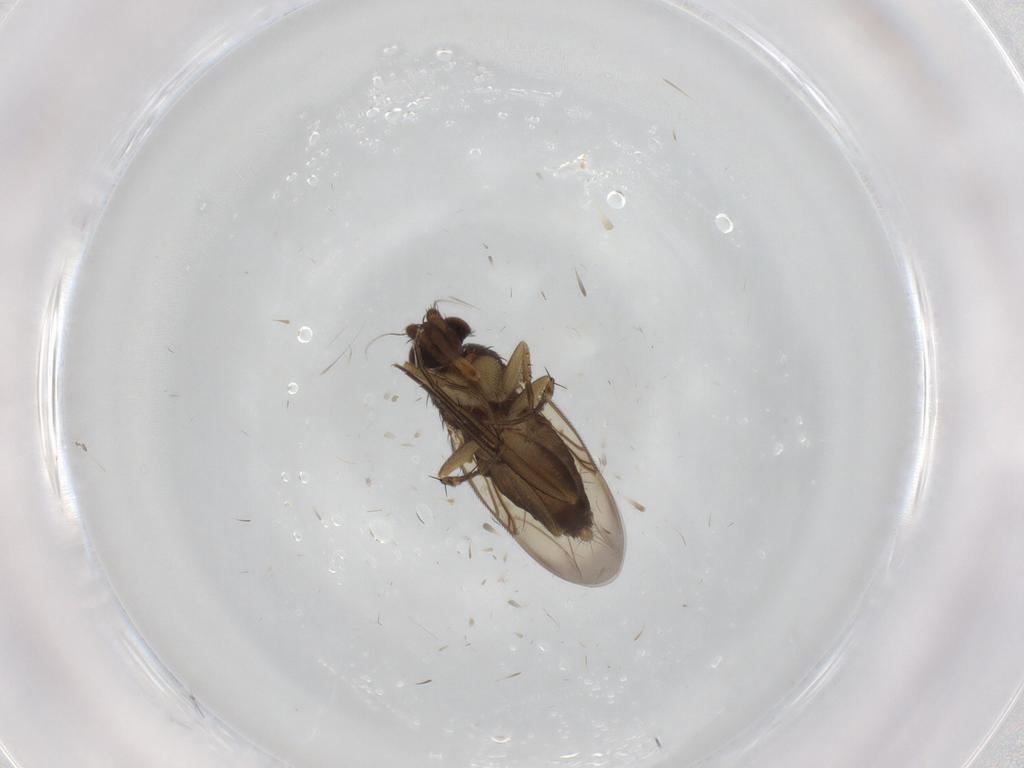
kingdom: Animalia
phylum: Arthropoda
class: Insecta
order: Diptera
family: Phoridae
